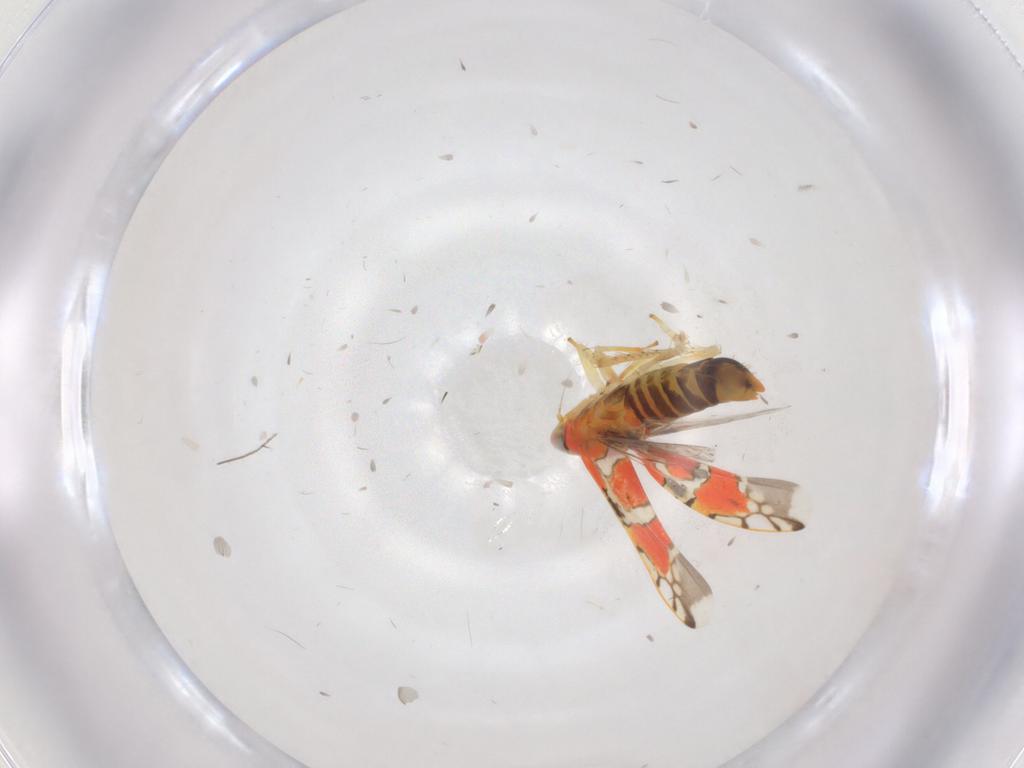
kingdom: Animalia
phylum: Arthropoda
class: Insecta
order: Hemiptera
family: Cicadellidae
